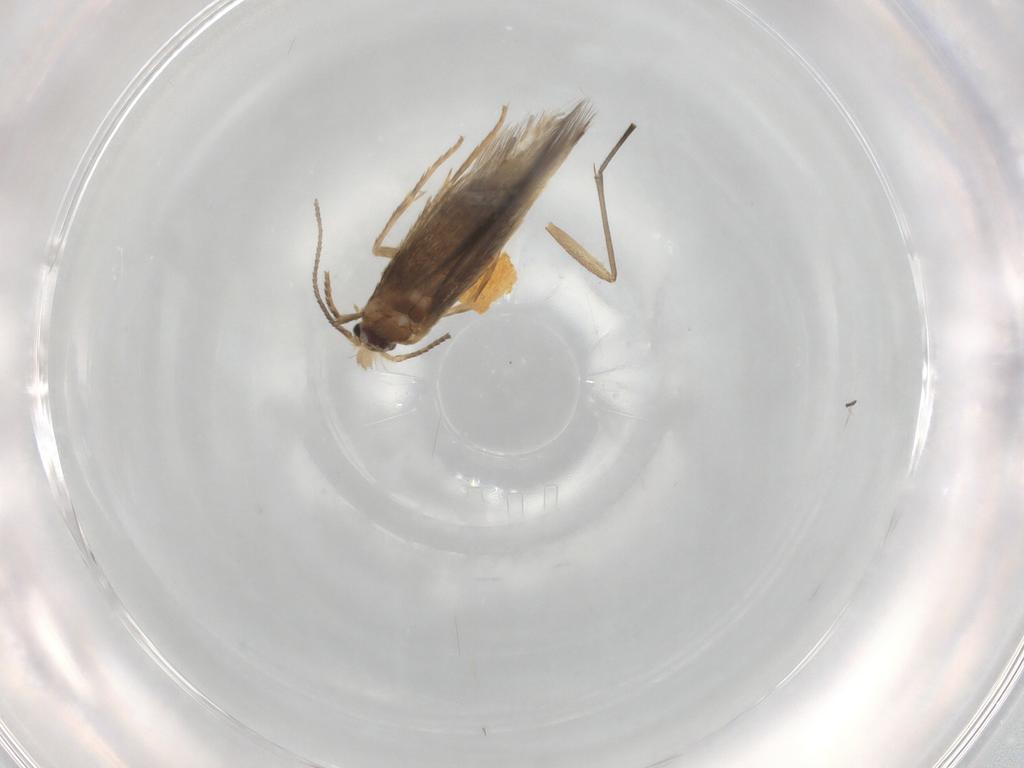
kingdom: Animalia
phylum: Arthropoda
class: Insecta
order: Lepidoptera
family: Nepticulidae
